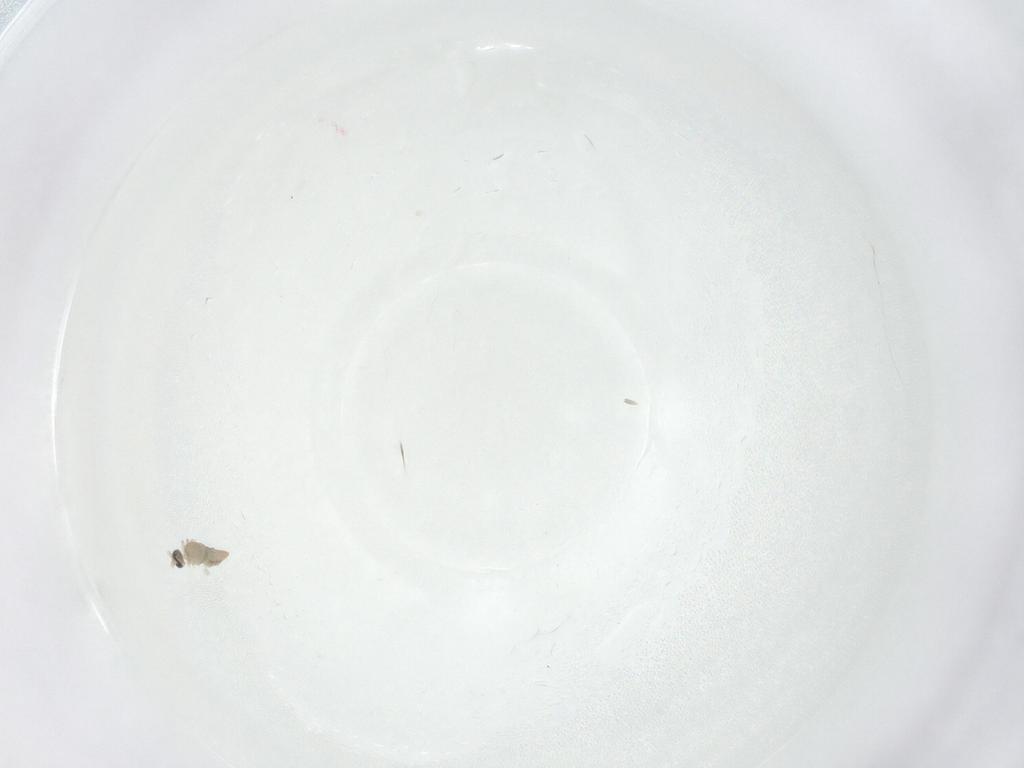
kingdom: Animalia
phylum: Arthropoda
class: Insecta
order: Diptera
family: Cecidomyiidae
